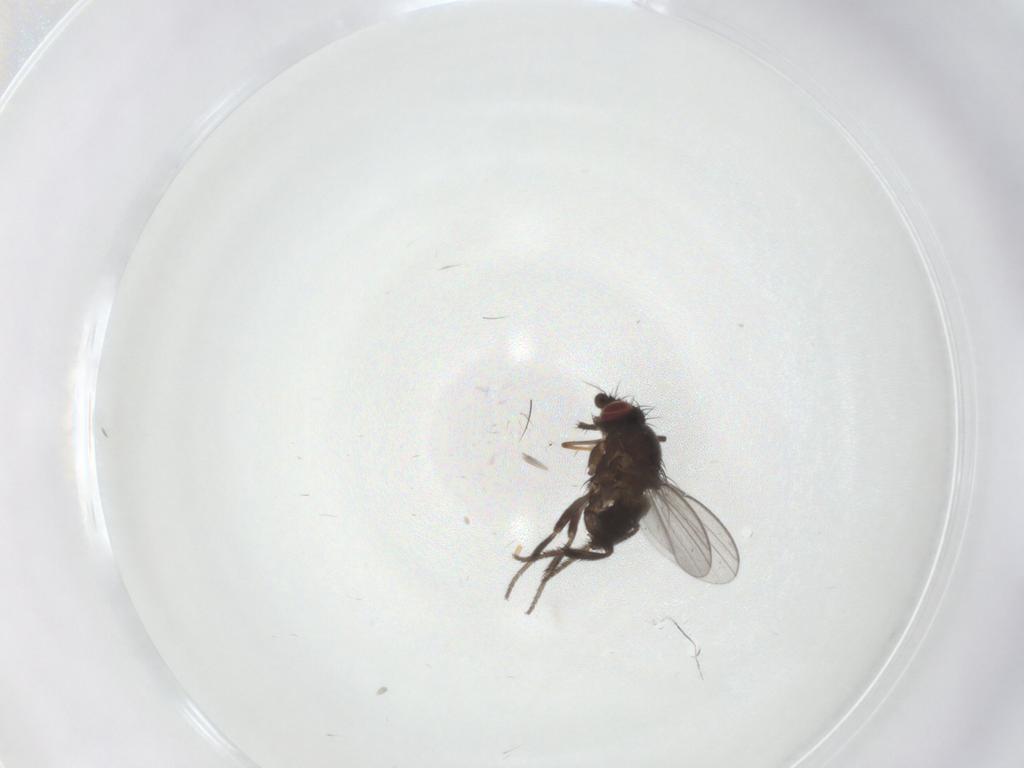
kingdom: Animalia
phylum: Arthropoda
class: Insecta
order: Diptera
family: Milichiidae
